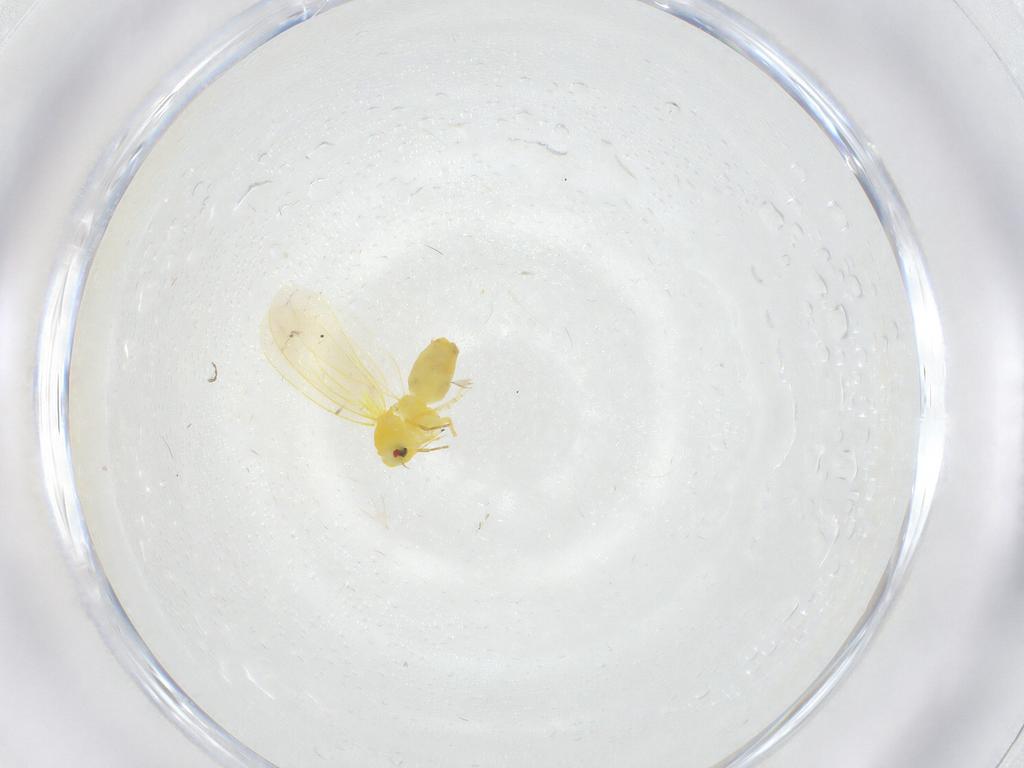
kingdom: Animalia
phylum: Arthropoda
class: Insecta
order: Hemiptera
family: Aleyrodidae
